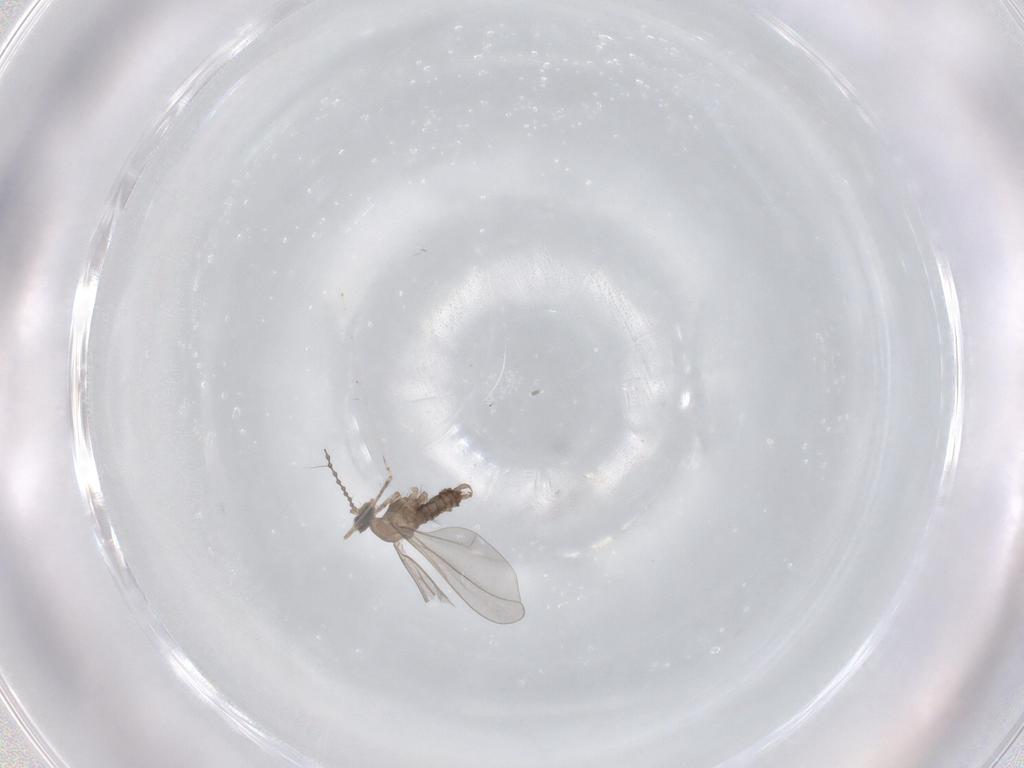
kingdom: Animalia
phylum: Arthropoda
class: Insecta
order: Diptera
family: Cecidomyiidae
